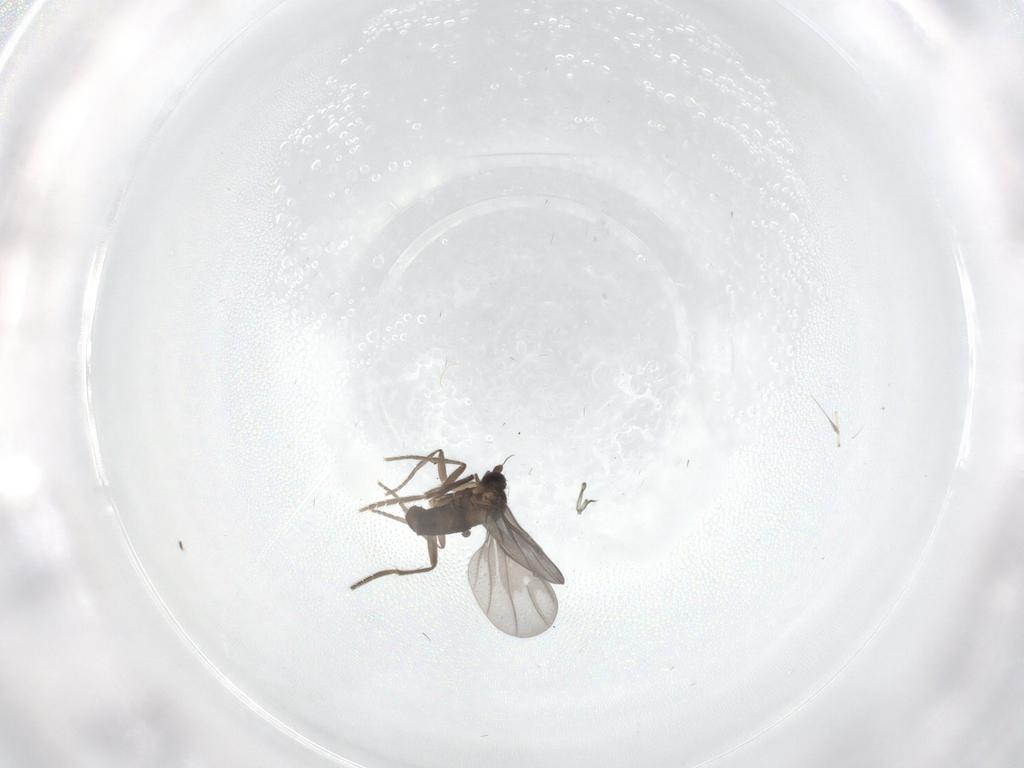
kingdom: Animalia
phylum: Arthropoda
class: Insecta
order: Diptera
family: Phoridae
